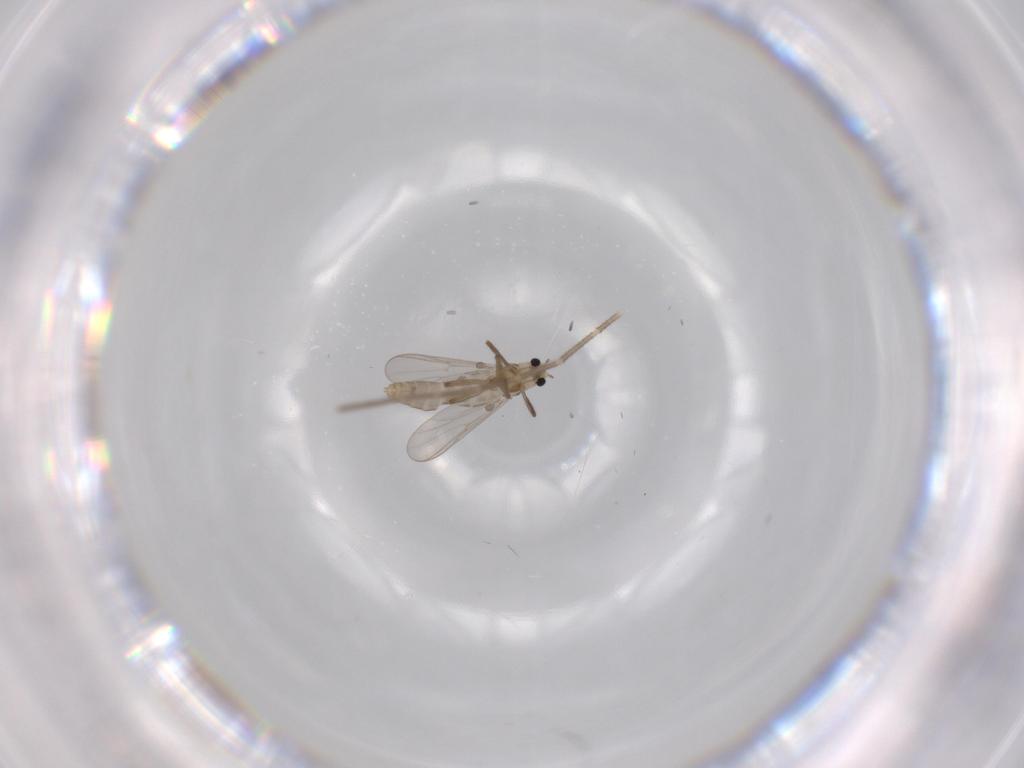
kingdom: Animalia
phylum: Arthropoda
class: Insecta
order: Diptera
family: Chironomidae
